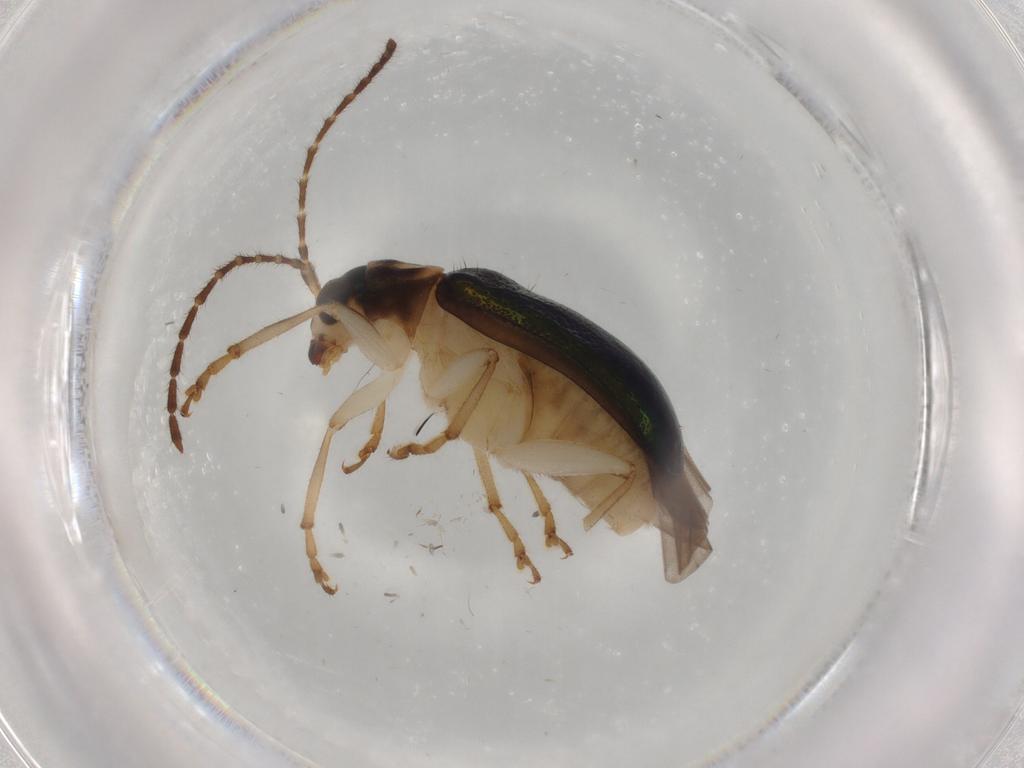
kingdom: Animalia
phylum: Arthropoda
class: Insecta
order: Coleoptera
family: Chrysomelidae
